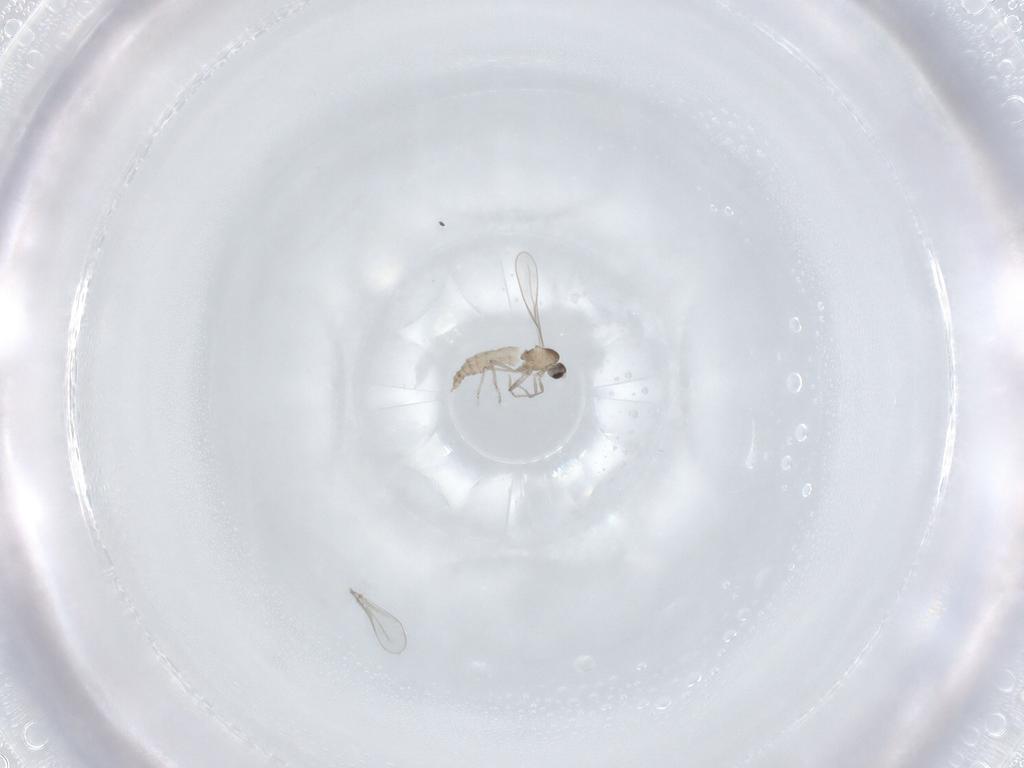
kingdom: Animalia
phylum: Arthropoda
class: Insecta
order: Diptera
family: Cecidomyiidae
